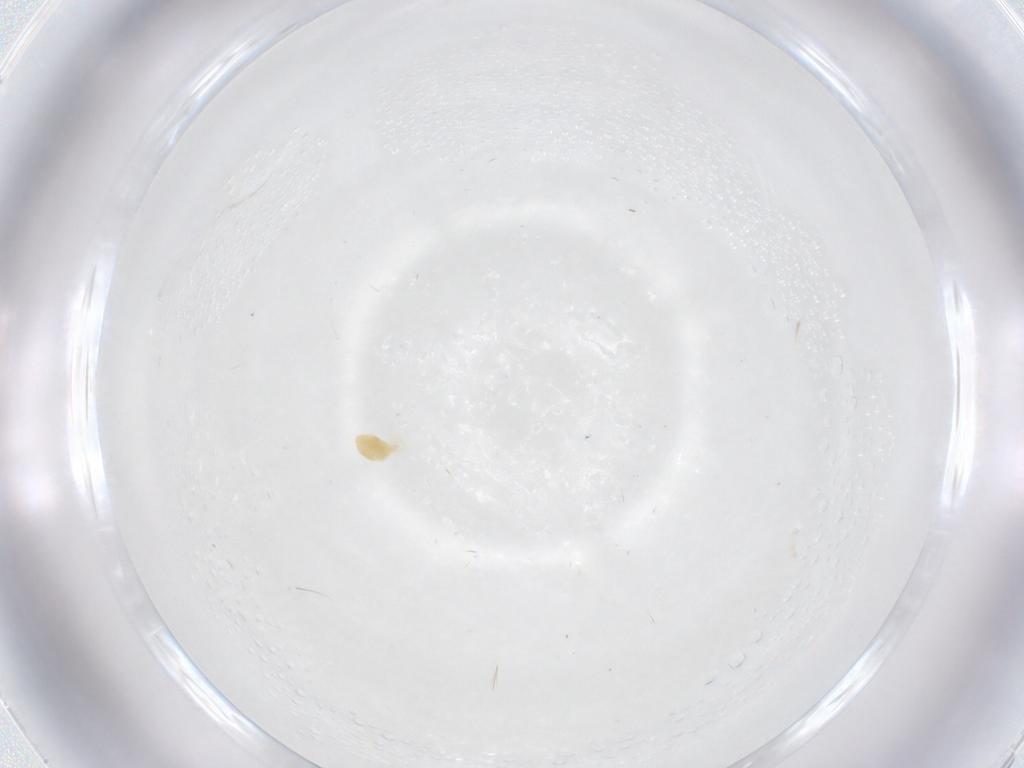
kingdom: Animalia
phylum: Arthropoda
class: Arachnida
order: Trombidiformes
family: Tetranychidae
